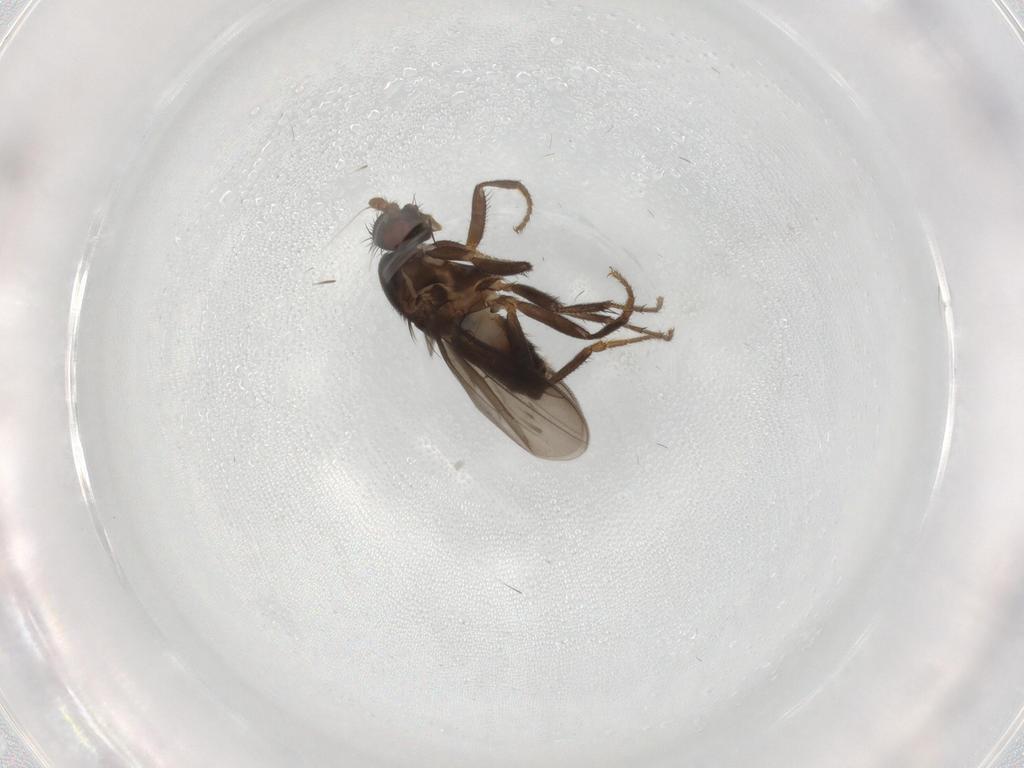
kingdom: Animalia
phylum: Arthropoda
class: Insecta
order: Diptera
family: Sphaeroceridae
